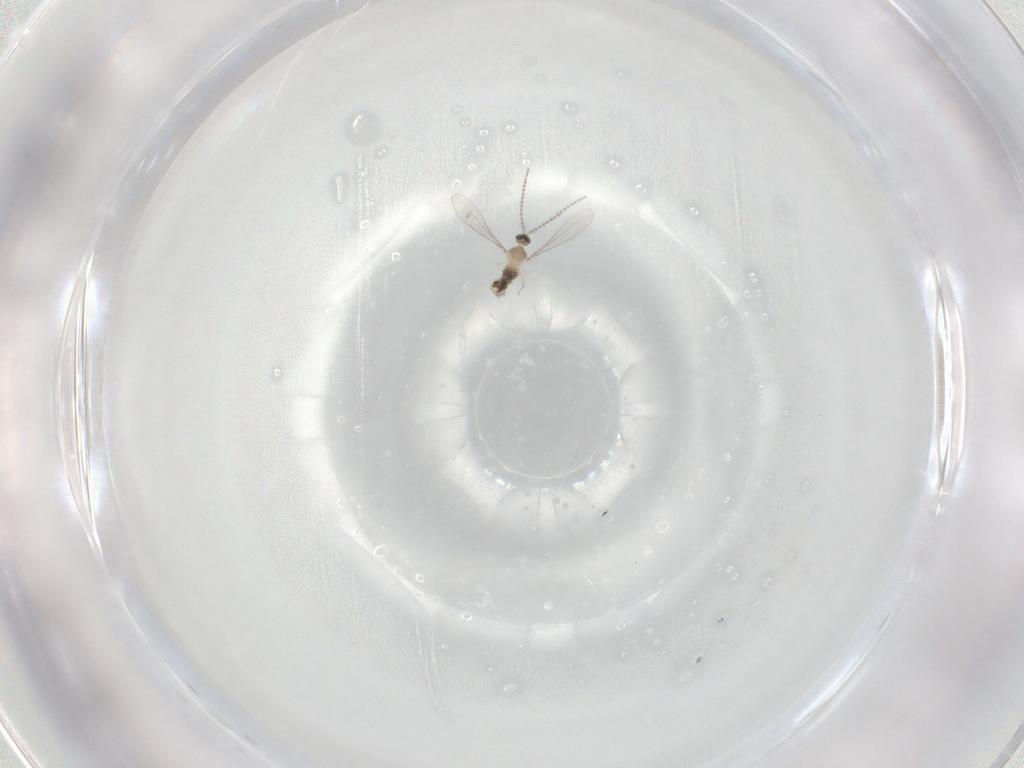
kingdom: Animalia
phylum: Arthropoda
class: Insecta
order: Diptera
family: Cecidomyiidae
